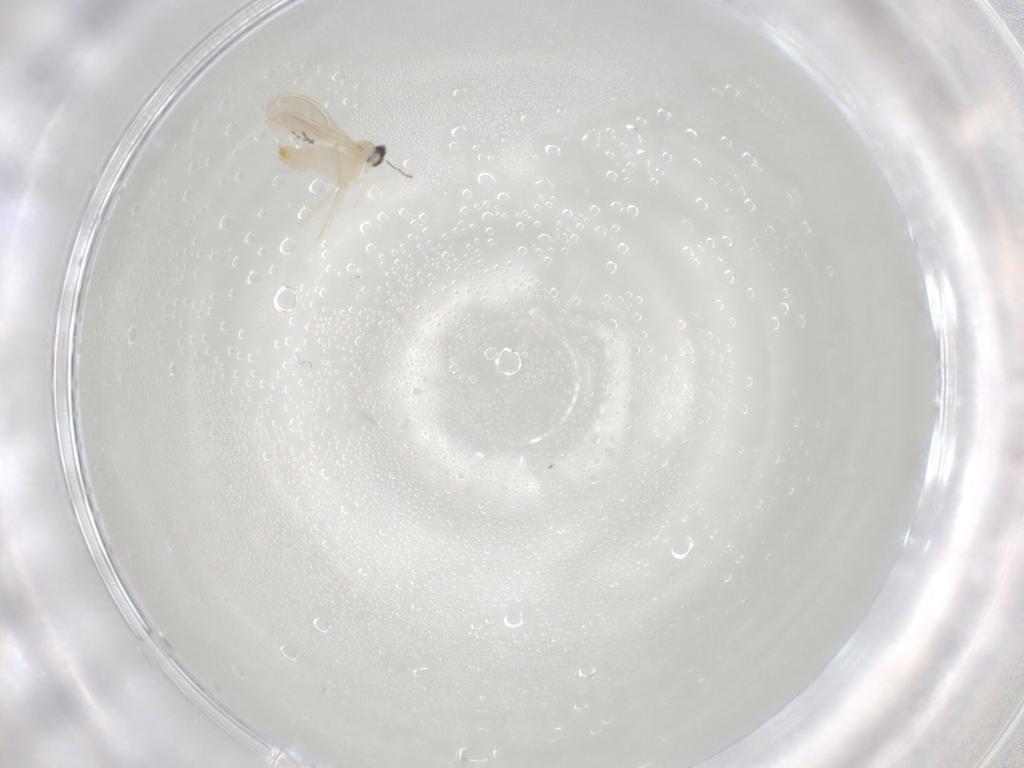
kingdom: Animalia
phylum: Arthropoda
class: Insecta
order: Diptera
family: Cecidomyiidae
